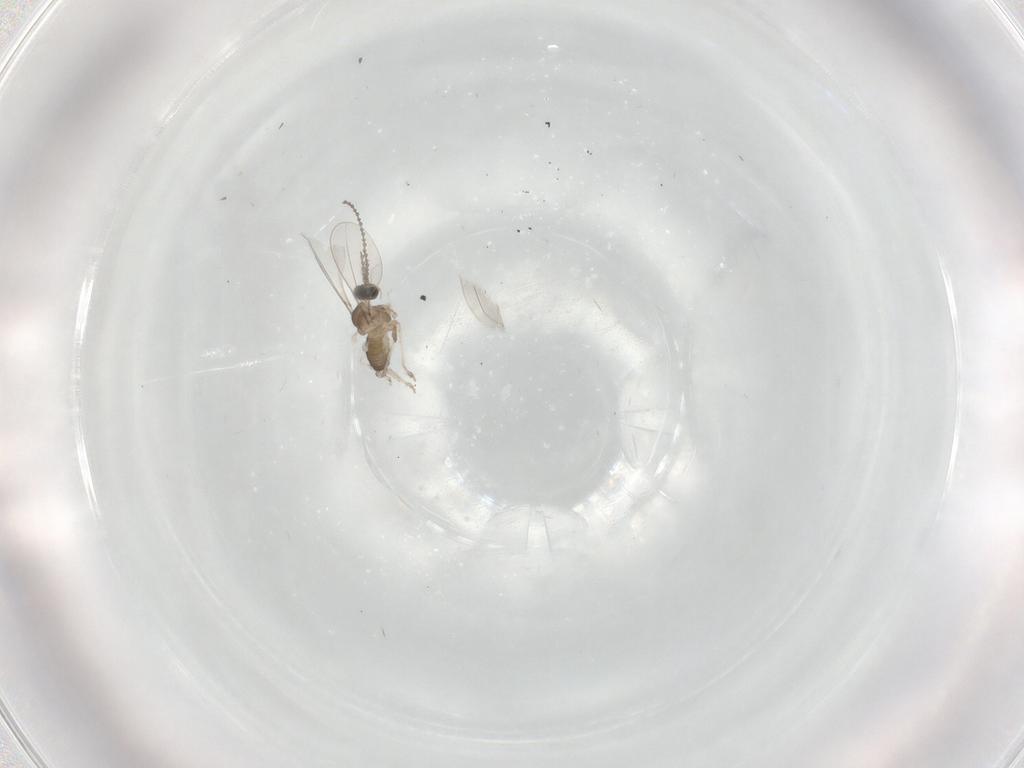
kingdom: Animalia
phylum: Arthropoda
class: Insecta
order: Diptera
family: Cecidomyiidae
